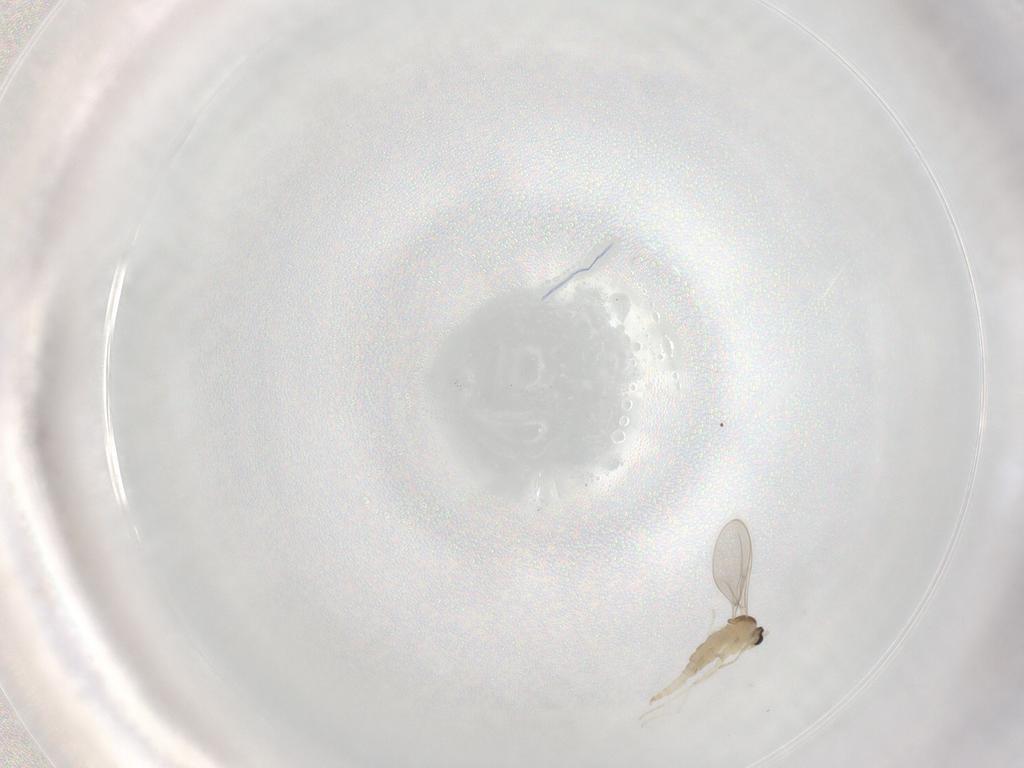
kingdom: Animalia
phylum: Arthropoda
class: Insecta
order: Diptera
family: Cecidomyiidae
